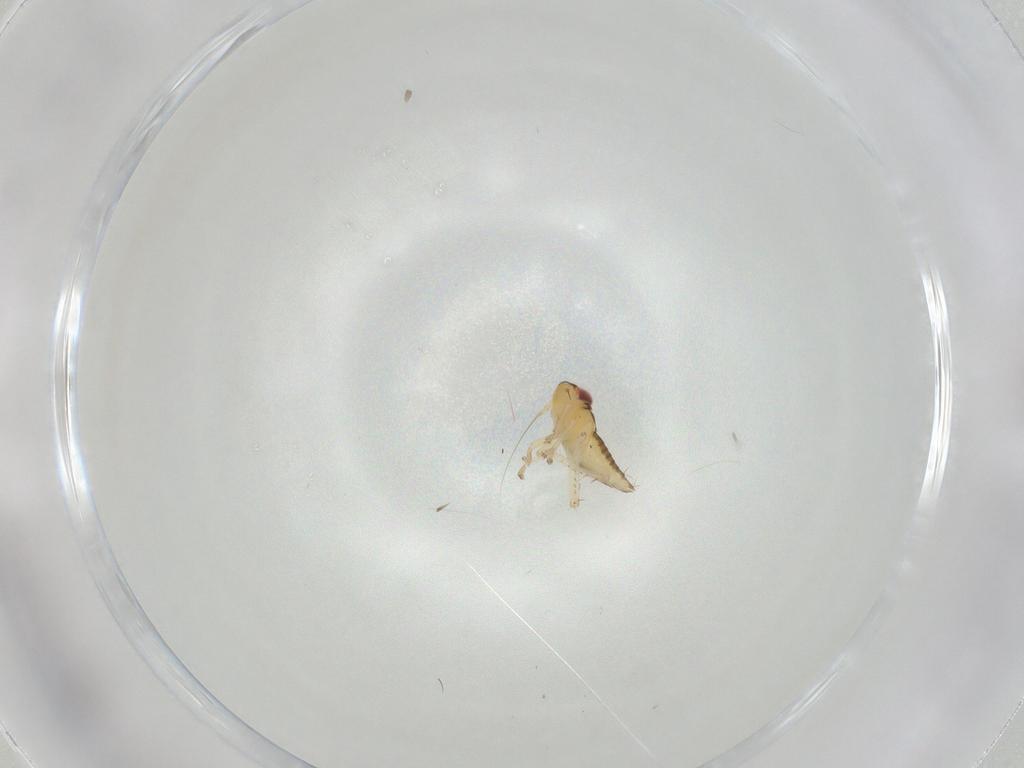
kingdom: Animalia
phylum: Arthropoda
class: Insecta
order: Hemiptera
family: Cicadellidae
